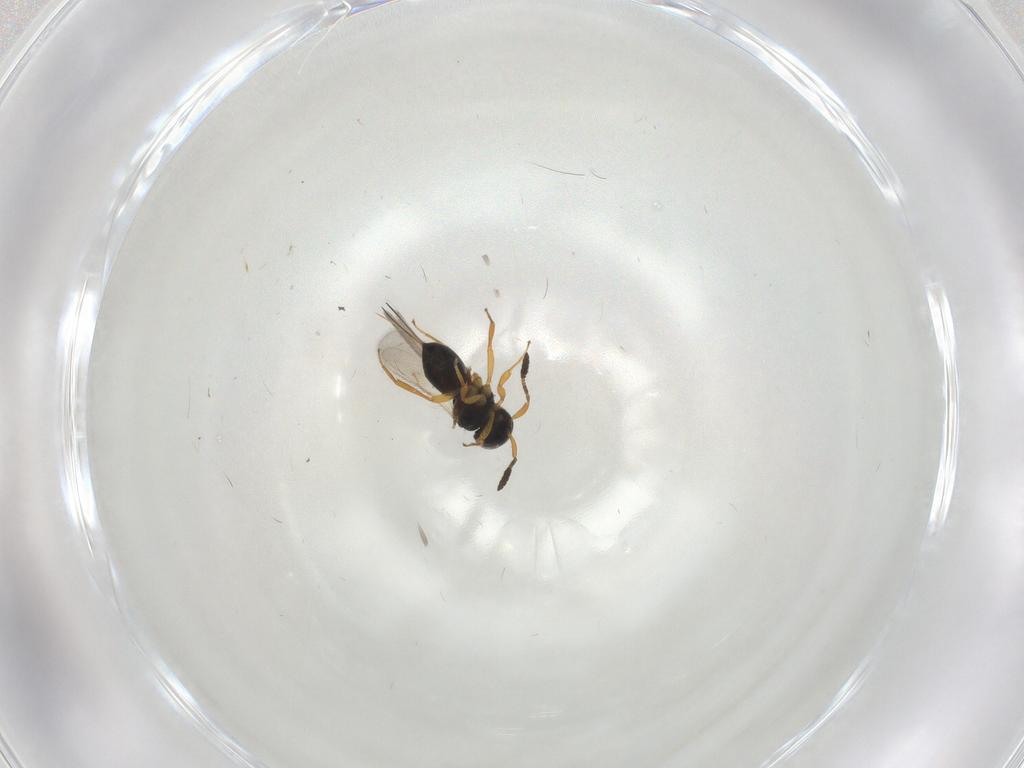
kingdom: Animalia
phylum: Arthropoda
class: Insecta
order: Hymenoptera
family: Scelionidae
